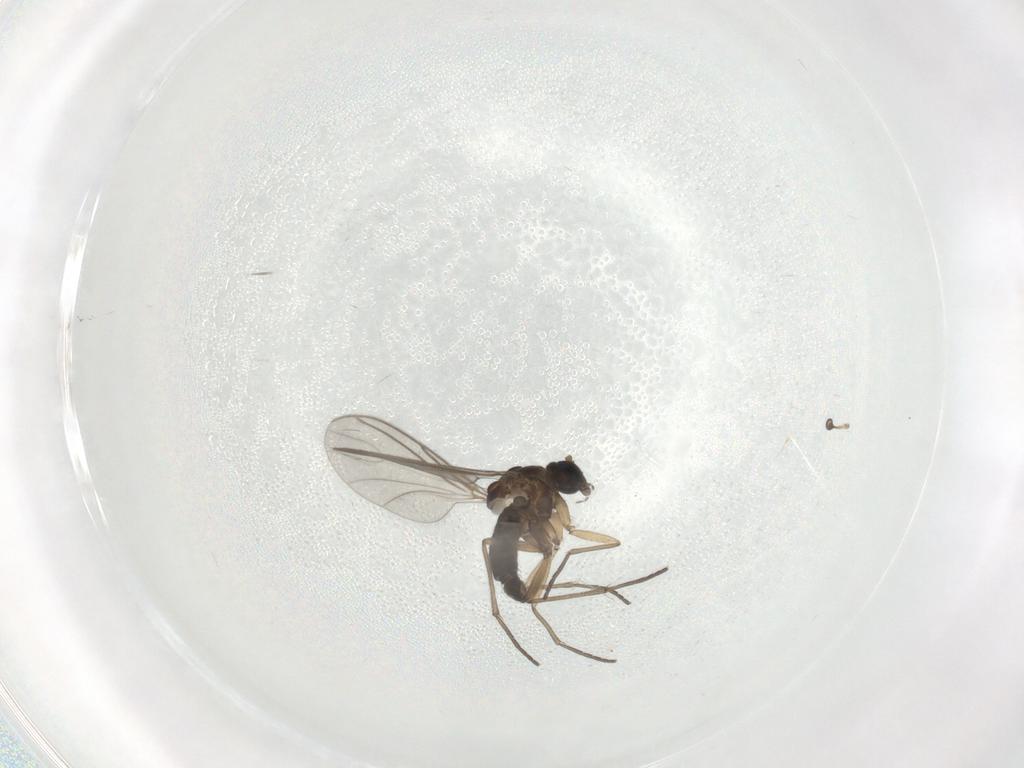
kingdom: Animalia
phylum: Arthropoda
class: Insecta
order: Diptera
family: Sciaridae
